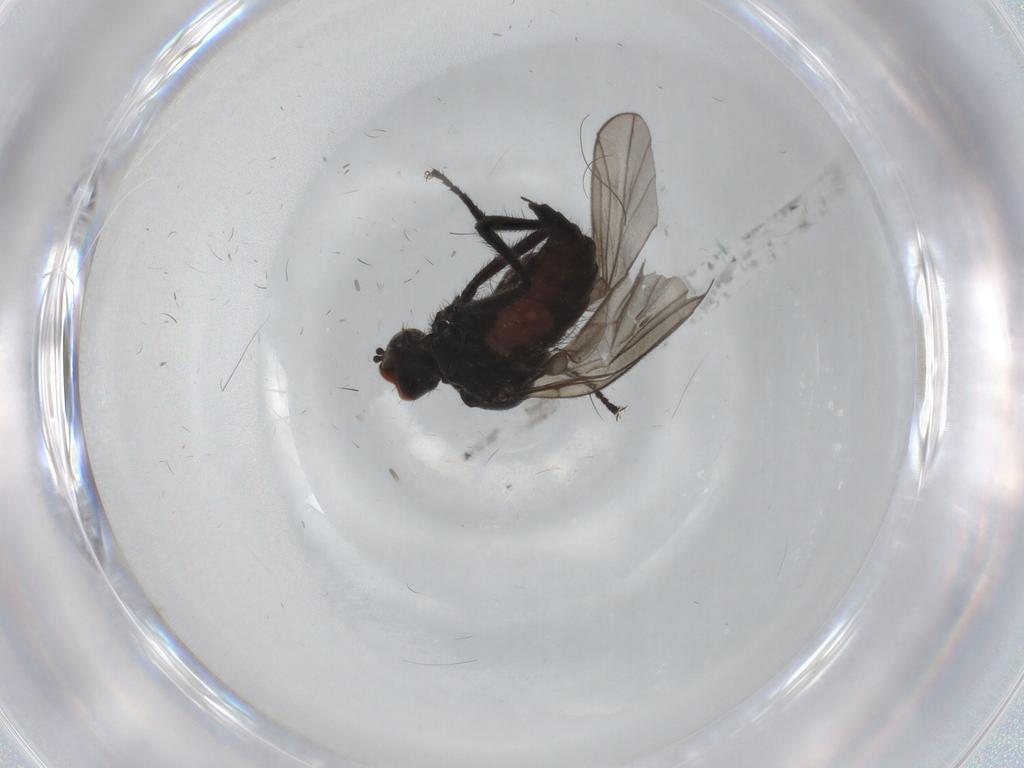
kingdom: Animalia
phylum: Arthropoda
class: Insecta
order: Diptera
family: Hybotidae
